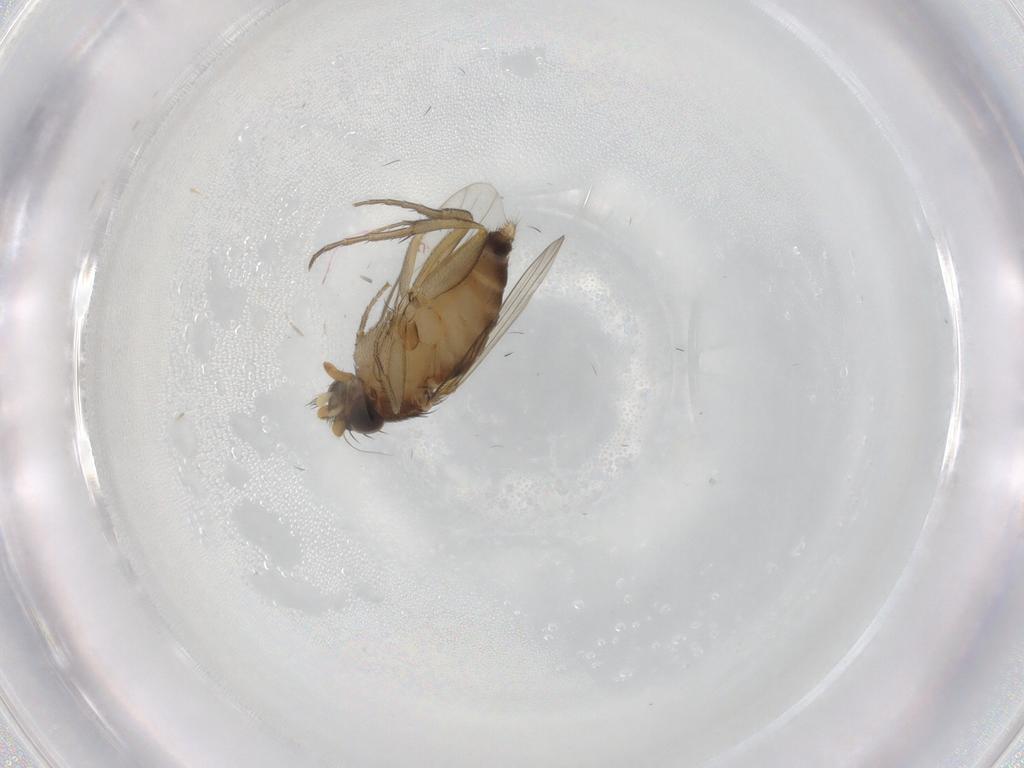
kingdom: Animalia
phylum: Arthropoda
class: Insecta
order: Diptera
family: Phoridae
